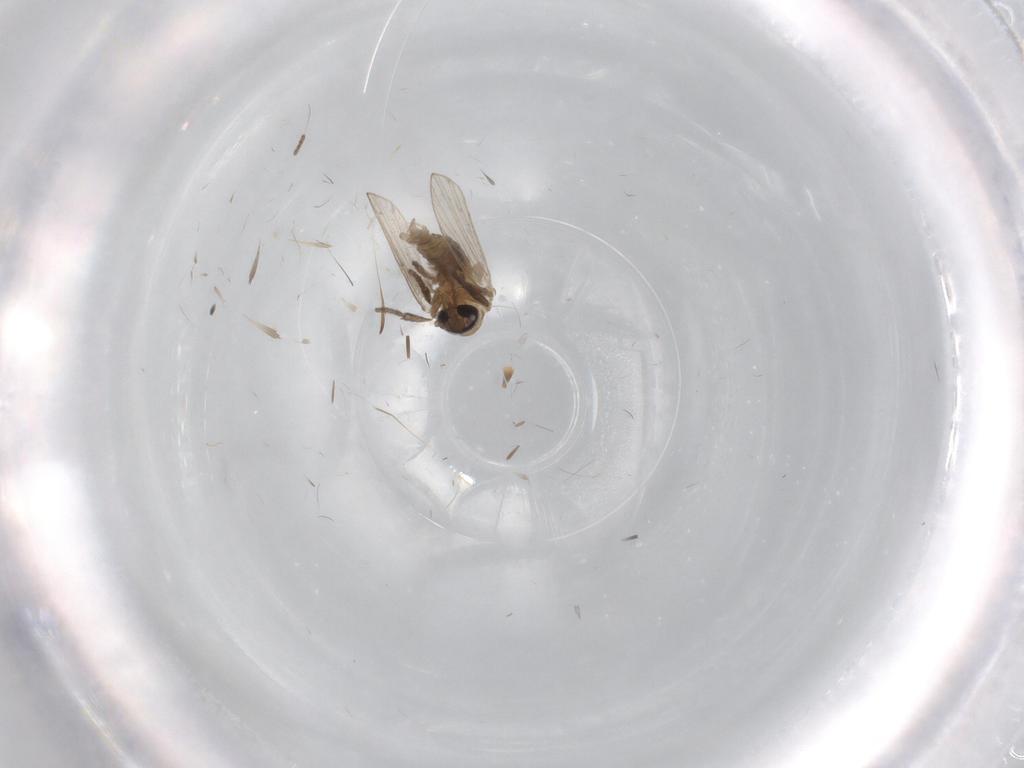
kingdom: Animalia
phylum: Arthropoda
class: Insecta
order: Diptera
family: Psychodidae
